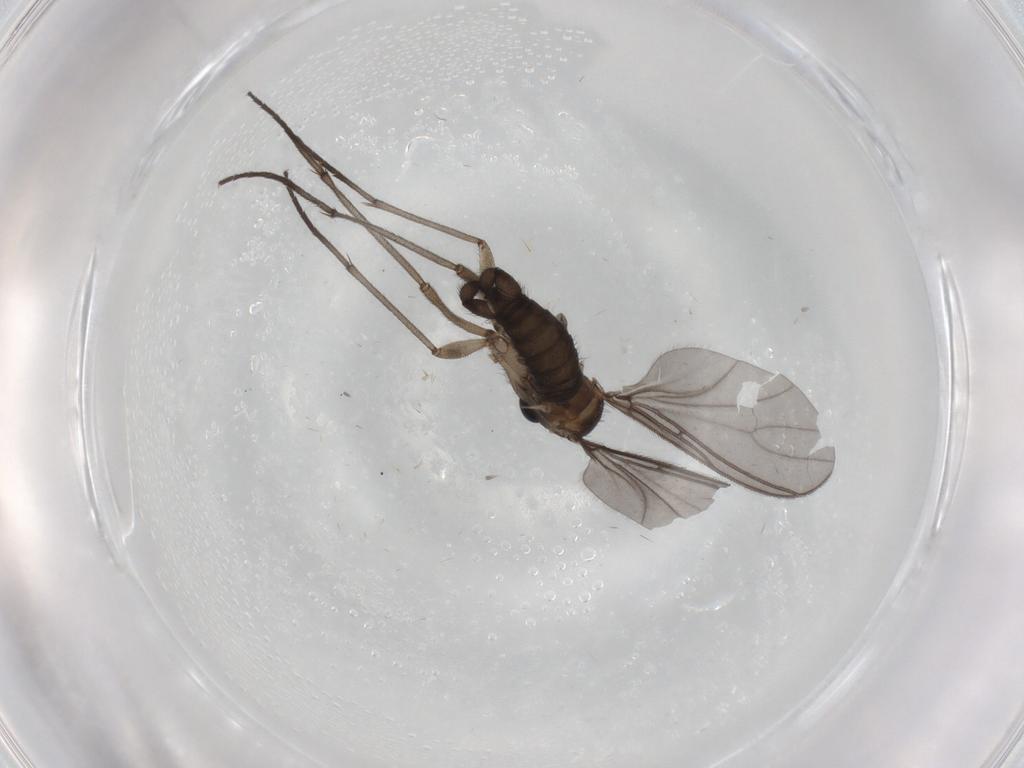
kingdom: Animalia
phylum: Arthropoda
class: Insecta
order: Diptera
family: Sciaridae
